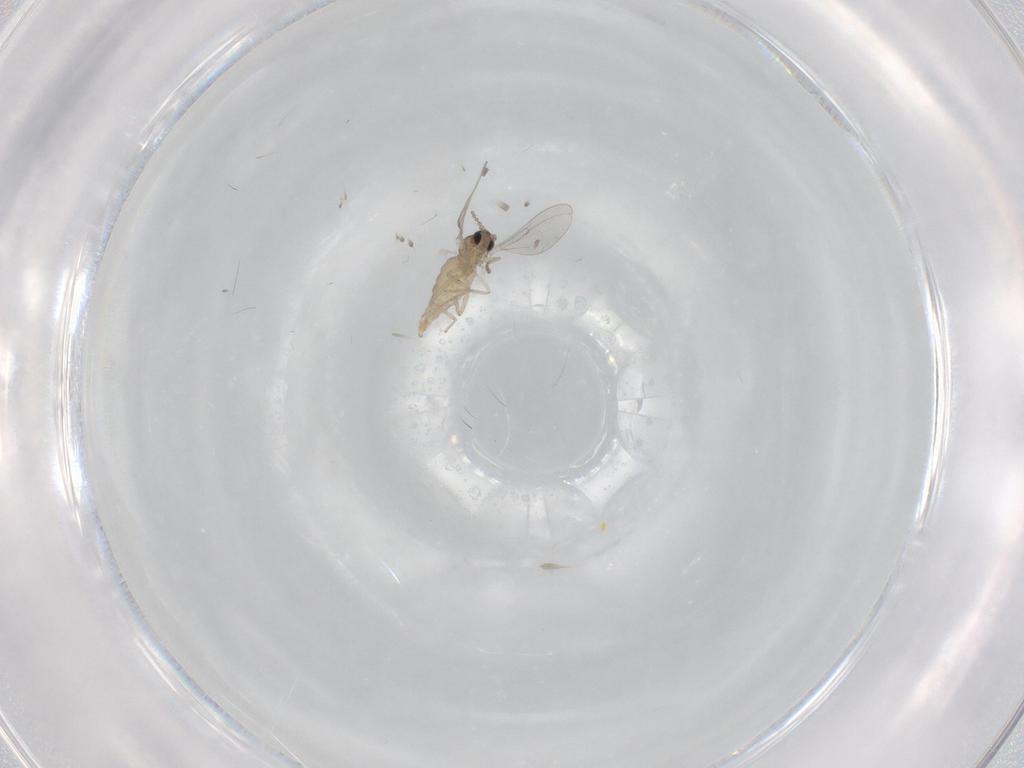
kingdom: Animalia
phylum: Arthropoda
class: Insecta
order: Diptera
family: Cecidomyiidae
